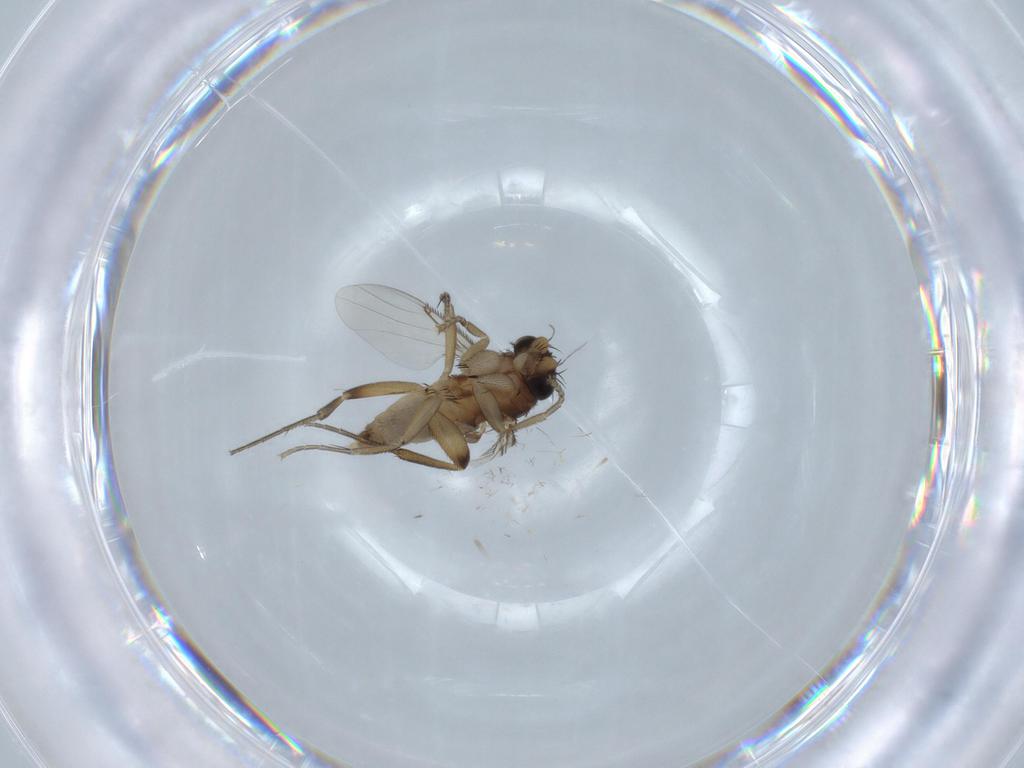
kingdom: Animalia
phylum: Arthropoda
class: Insecta
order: Diptera
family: Phoridae
